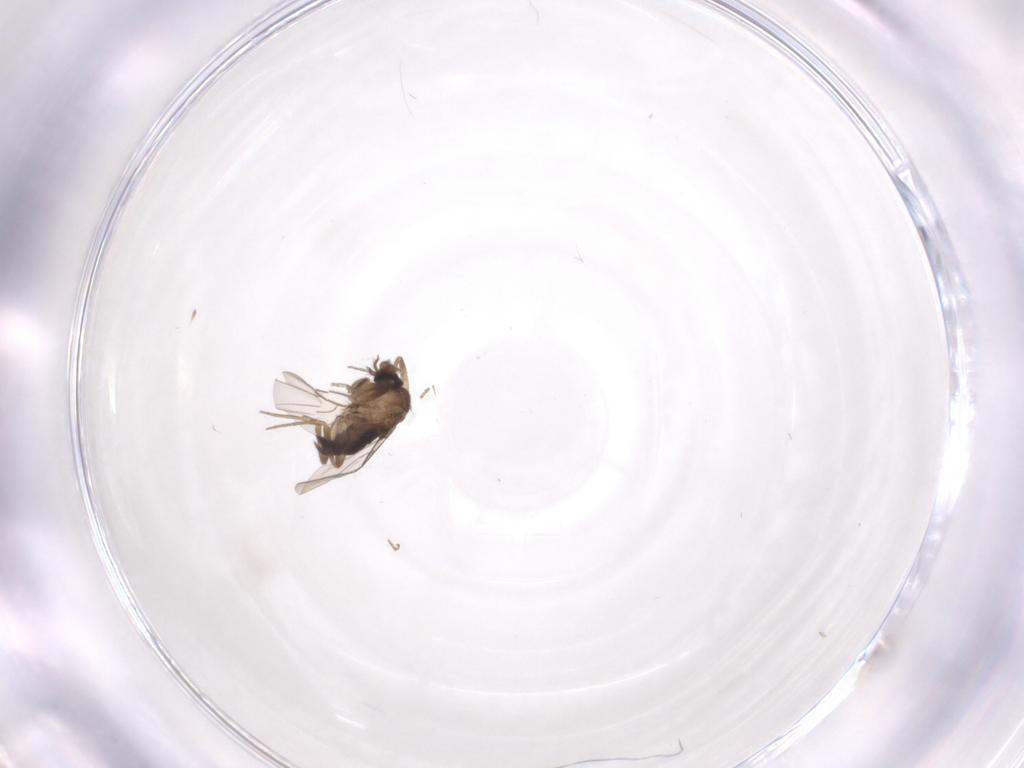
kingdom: Animalia
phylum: Arthropoda
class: Insecta
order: Diptera
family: Phoridae
